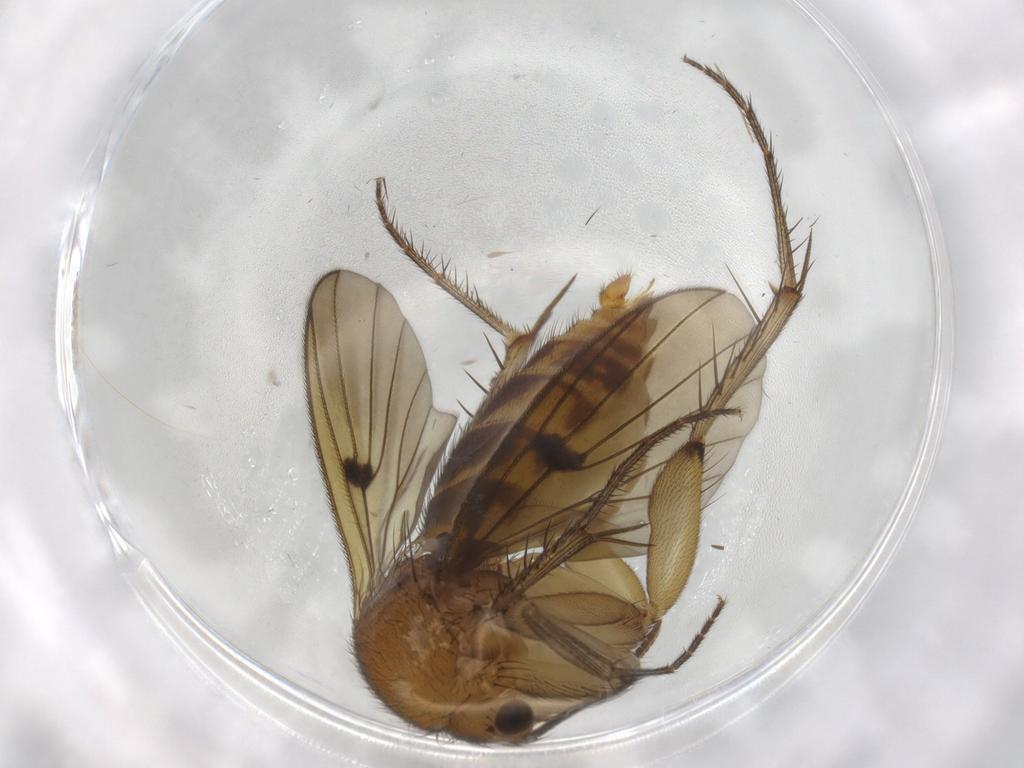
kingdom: Animalia
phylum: Arthropoda
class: Insecta
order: Diptera
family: Mycetophilidae
